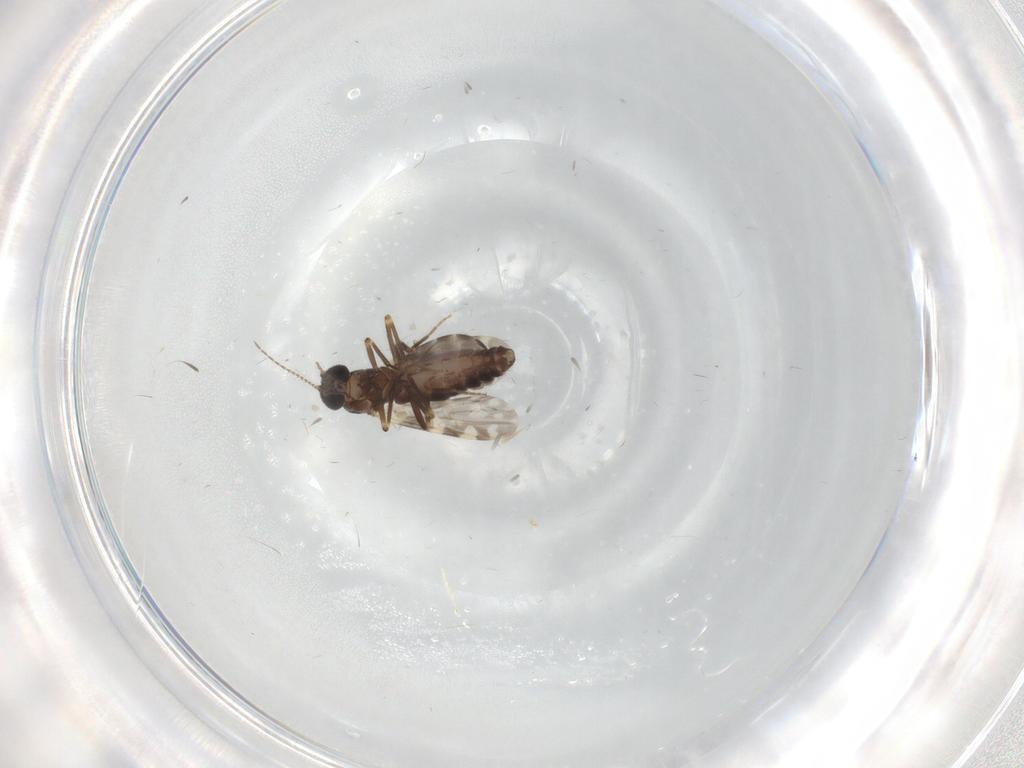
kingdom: Animalia
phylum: Arthropoda
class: Insecta
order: Diptera
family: Ceratopogonidae
